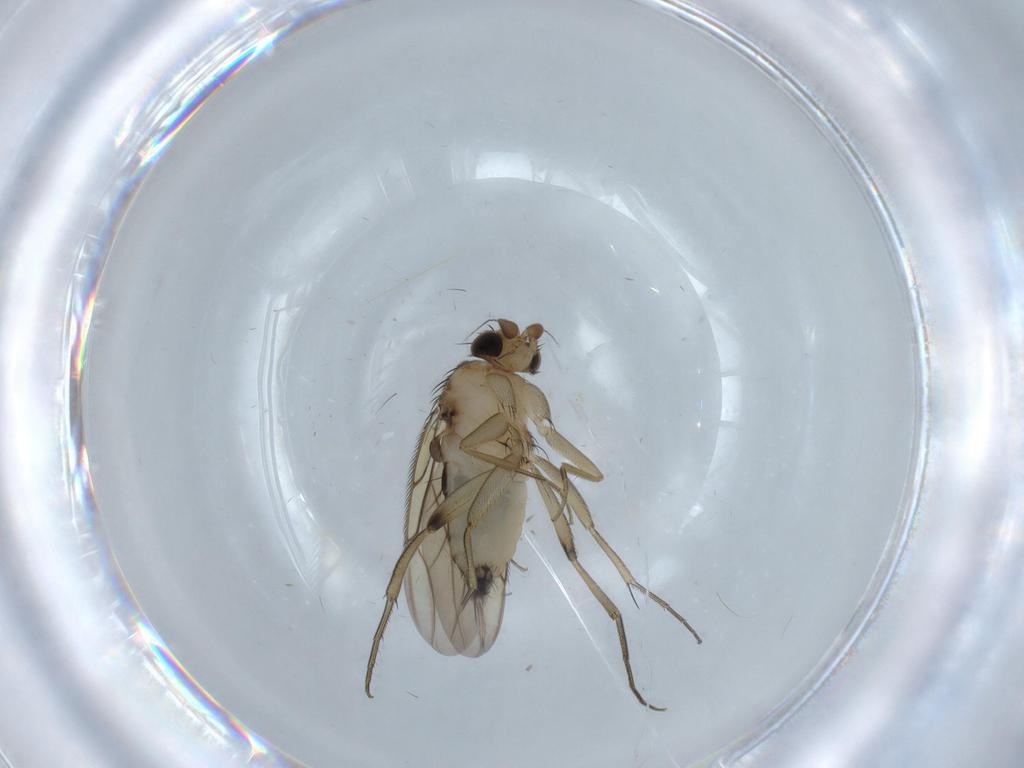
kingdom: Animalia
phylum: Arthropoda
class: Insecta
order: Diptera
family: Phoridae
